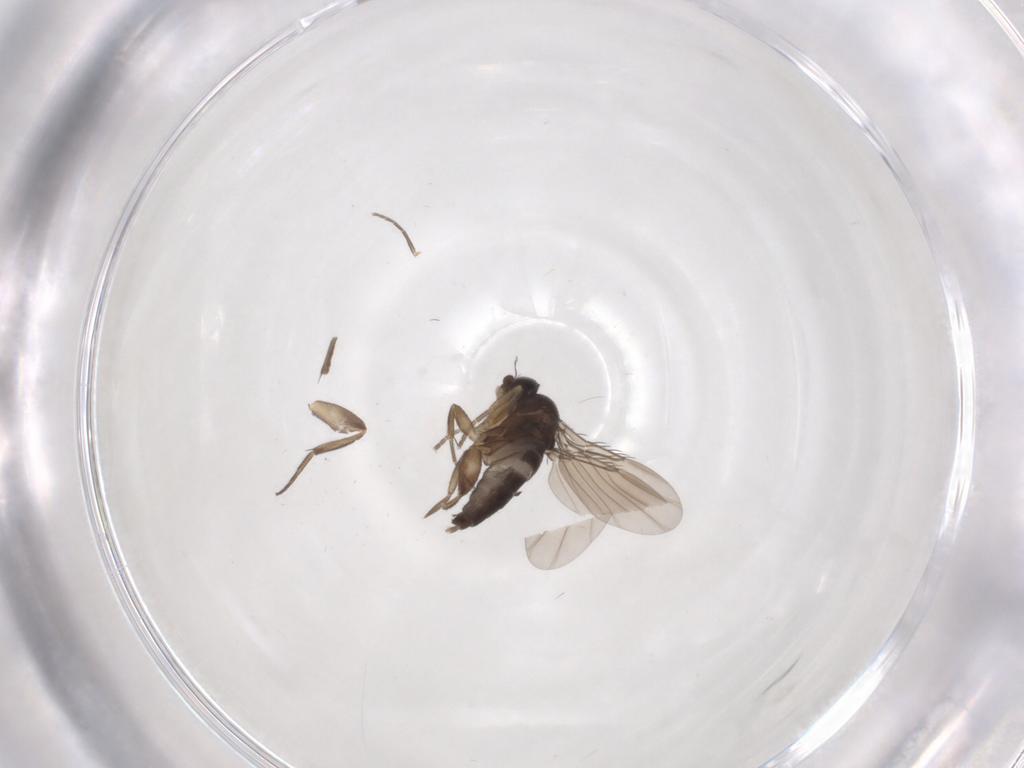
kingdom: Animalia
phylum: Arthropoda
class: Insecta
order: Diptera
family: Phoridae
